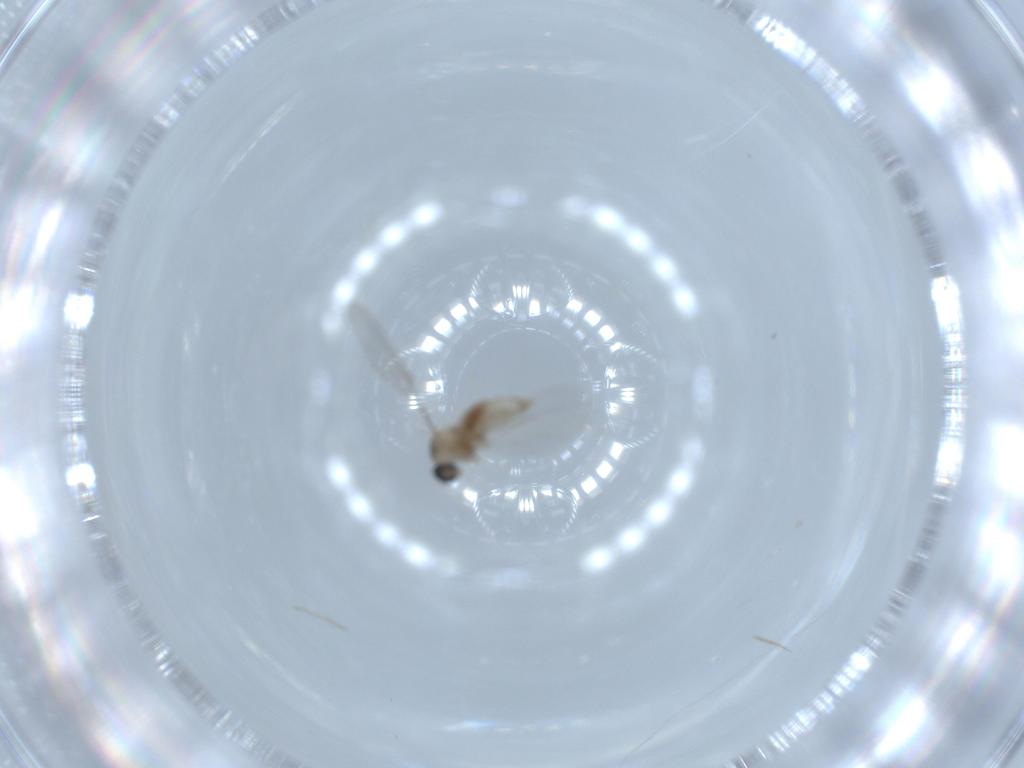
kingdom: Animalia
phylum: Arthropoda
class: Insecta
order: Diptera
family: Cecidomyiidae
